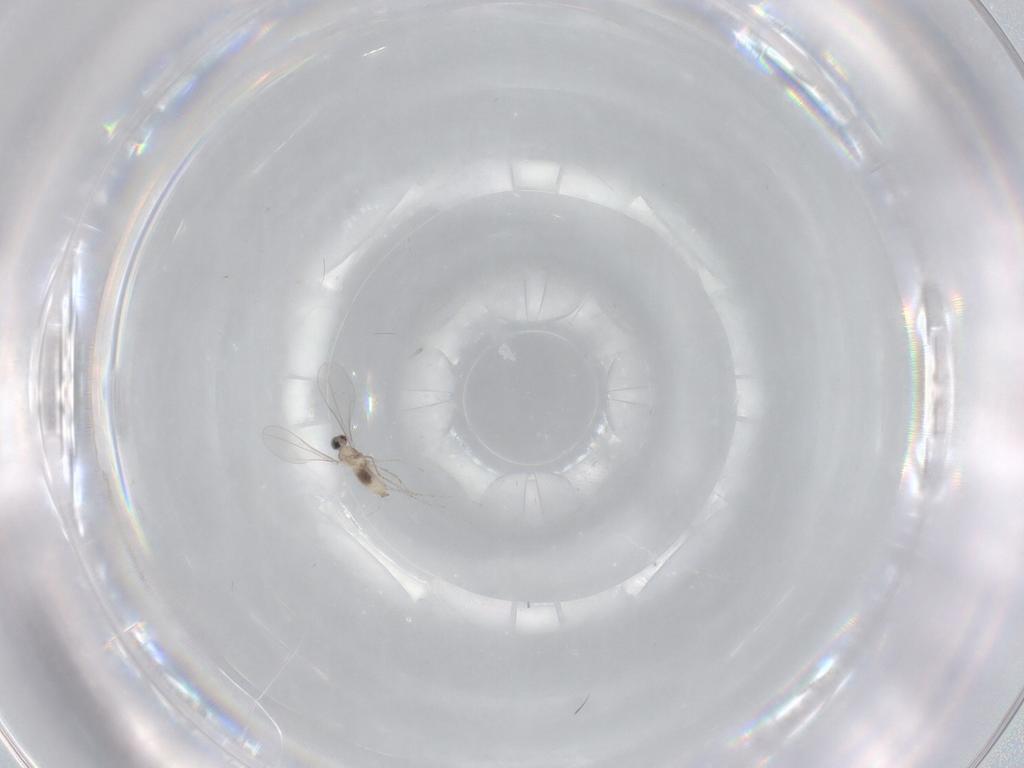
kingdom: Animalia
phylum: Arthropoda
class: Insecta
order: Diptera
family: Cecidomyiidae
